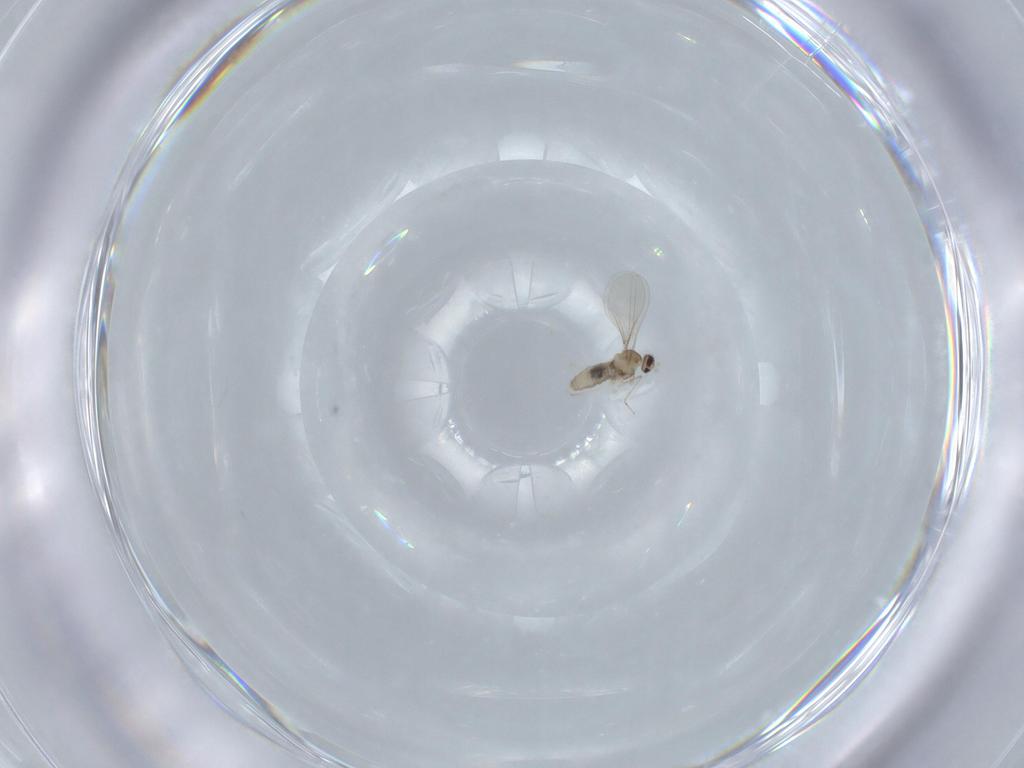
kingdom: Animalia
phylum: Arthropoda
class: Insecta
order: Diptera
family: Cecidomyiidae
